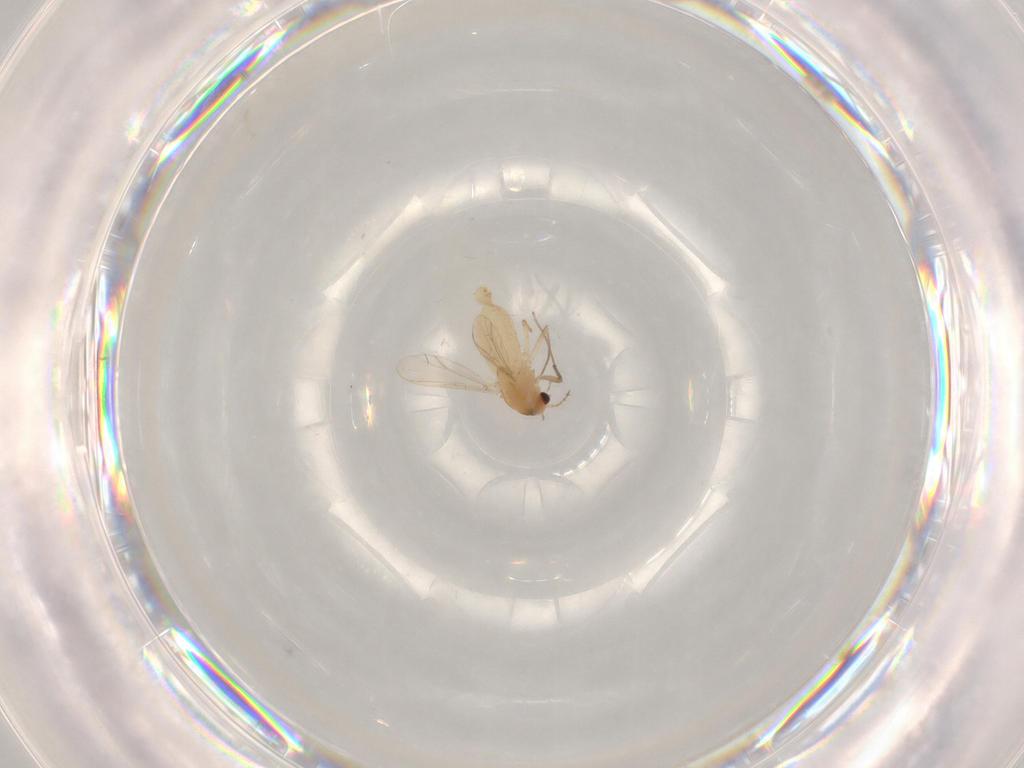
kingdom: Animalia
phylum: Arthropoda
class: Insecta
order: Diptera
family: Chironomidae
